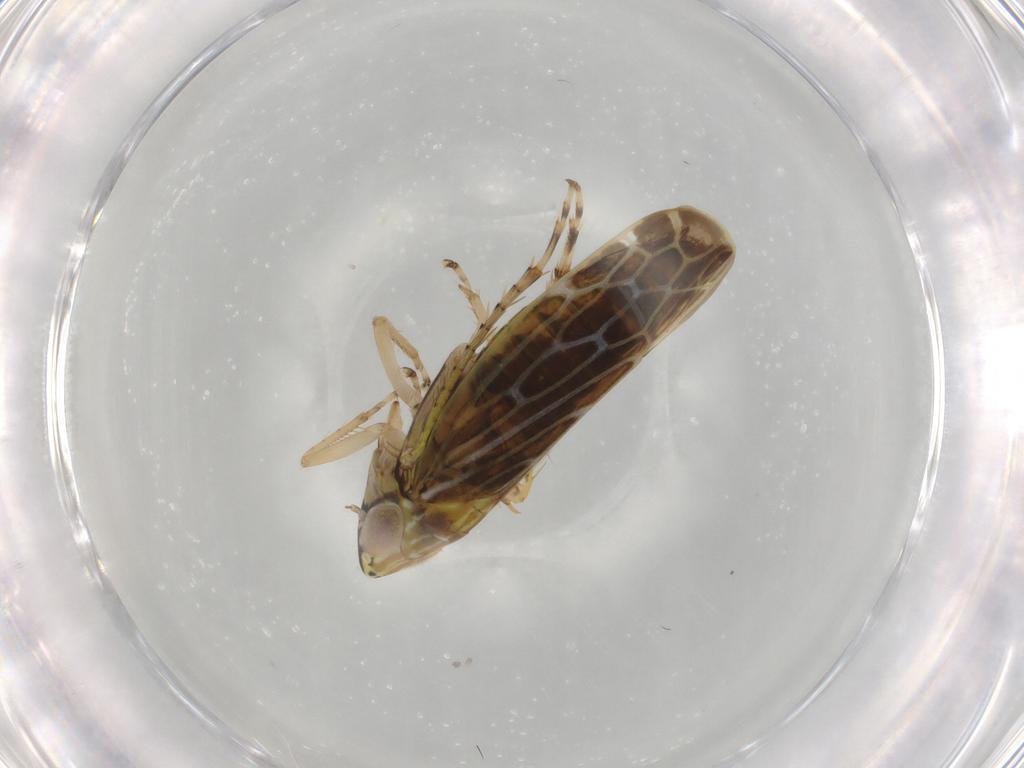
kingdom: Animalia
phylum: Arthropoda
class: Insecta
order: Hemiptera
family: Cicadellidae
